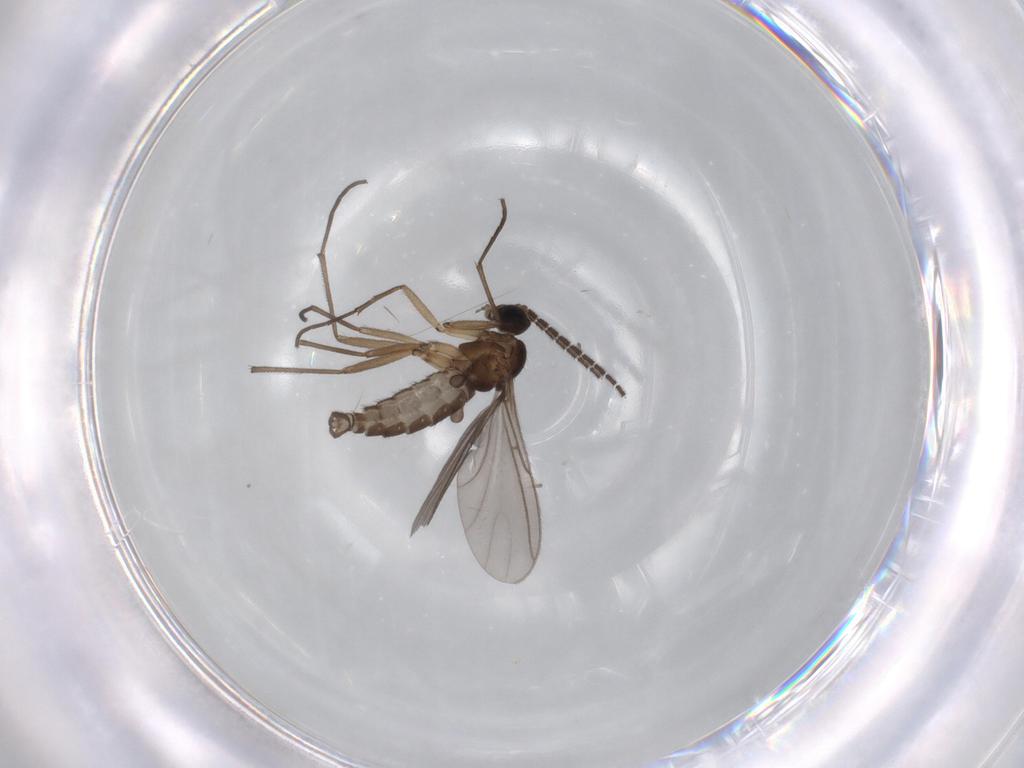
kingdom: Animalia
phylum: Arthropoda
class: Insecta
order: Diptera
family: Sciaridae
